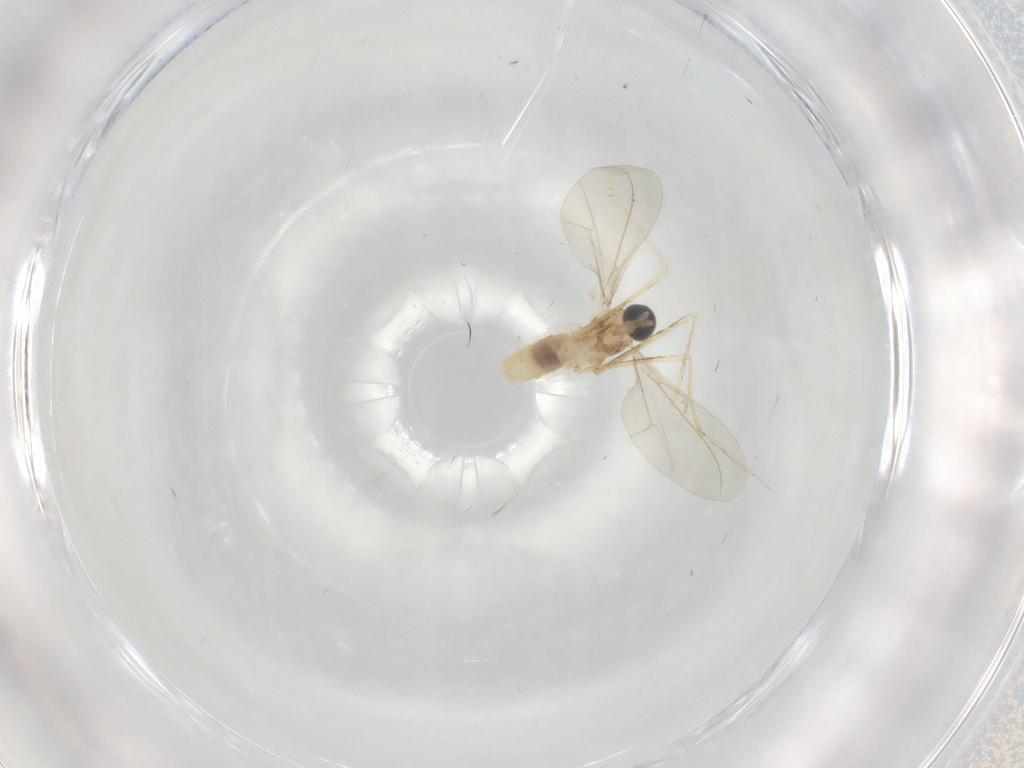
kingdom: Animalia
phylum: Arthropoda
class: Insecta
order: Diptera
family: Cecidomyiidae
